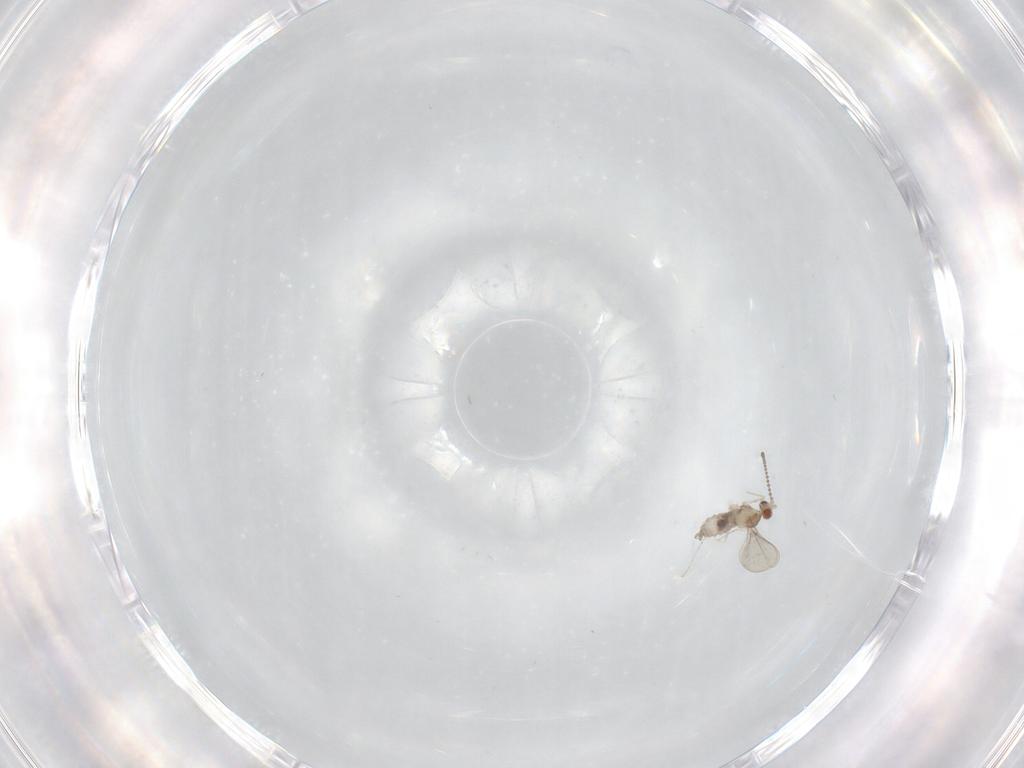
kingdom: Animalia
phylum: Arthropoda
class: Insecta
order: Diptera
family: Cecidomyiidae
